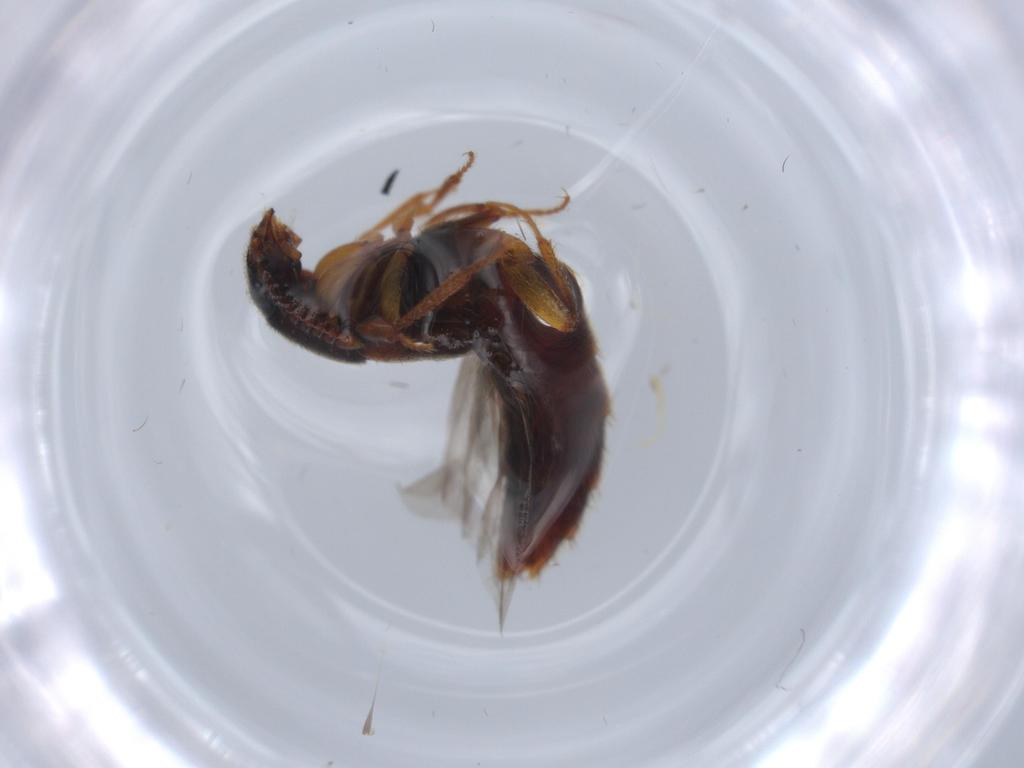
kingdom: Animalia
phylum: Arthropoda
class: Insecta
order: Coleoptera
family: Staphylinidae
